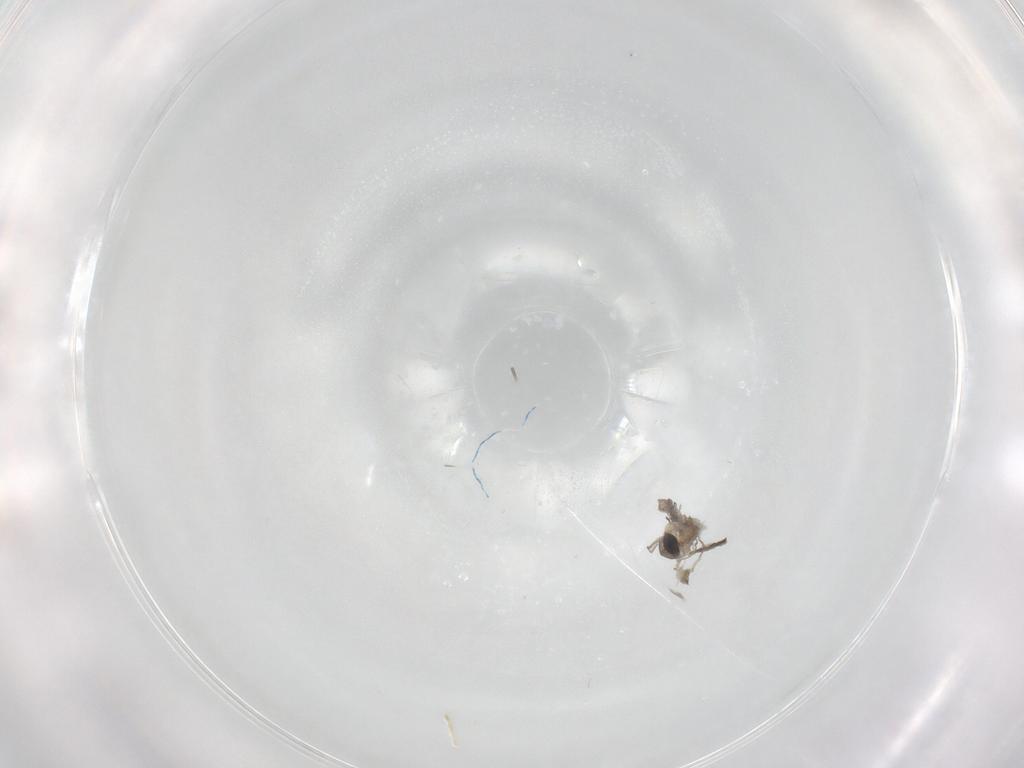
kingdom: Animalia
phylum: Arthropoda
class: Insecta
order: Diptera
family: Cecidomyiidae
